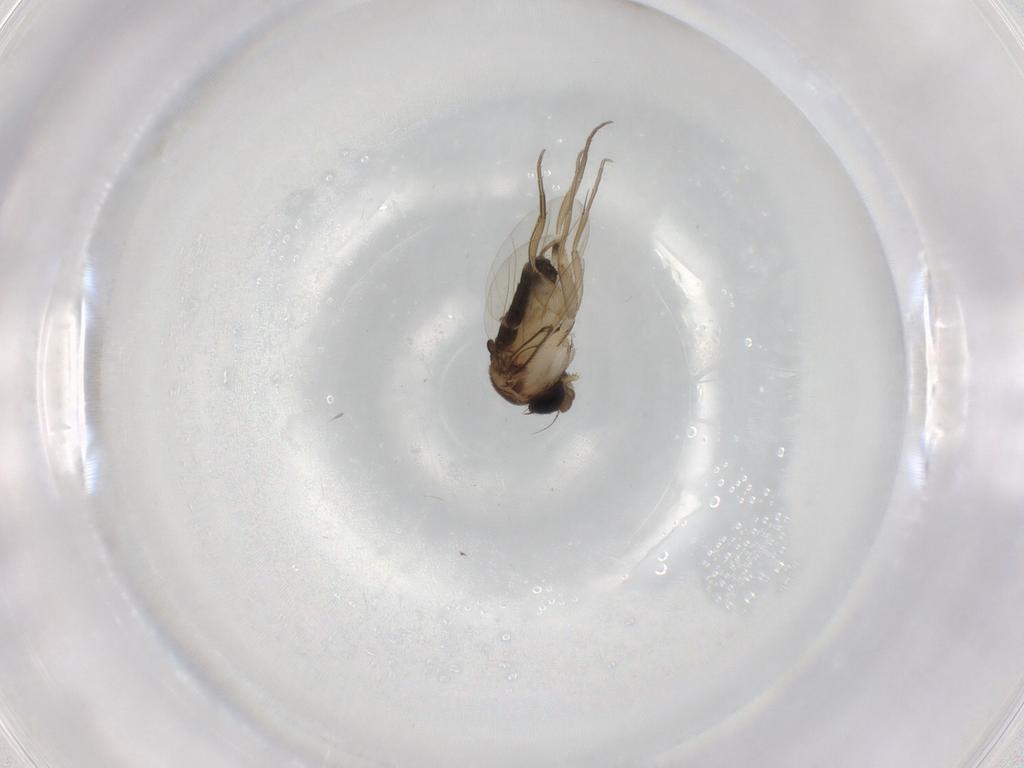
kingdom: Animalia
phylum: Arthropoda
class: Insecta
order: Diptera
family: Phoridae
